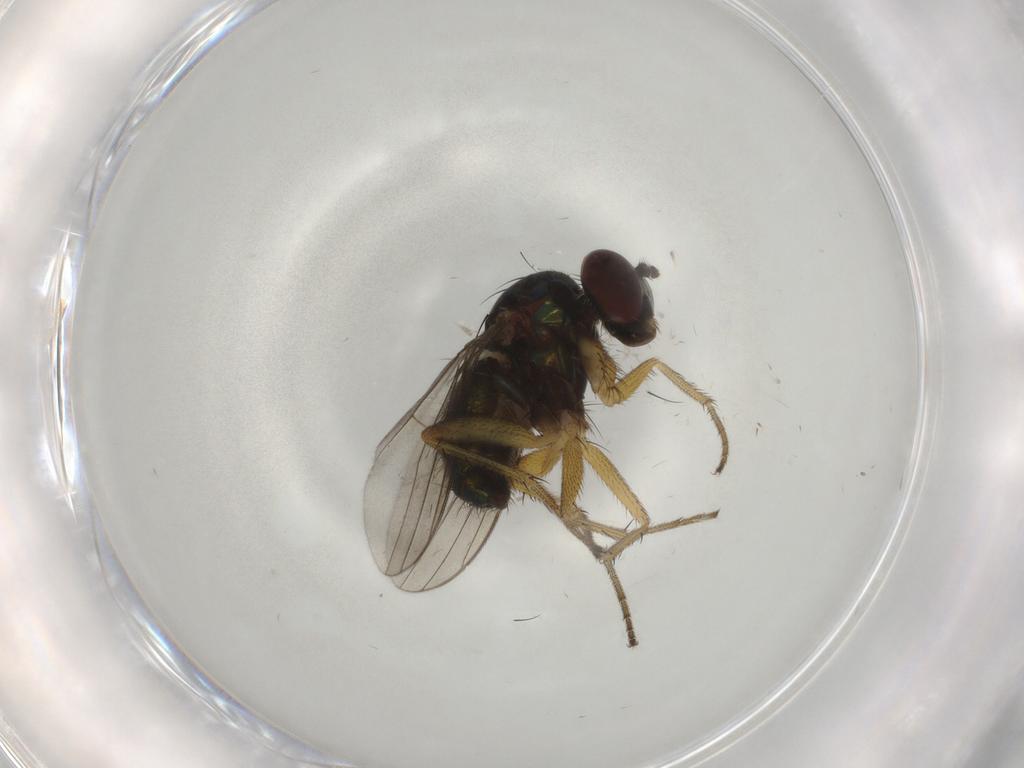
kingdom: Animalia
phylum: Arthropoda
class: Insecta
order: Diptera
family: Dolichopodidae
